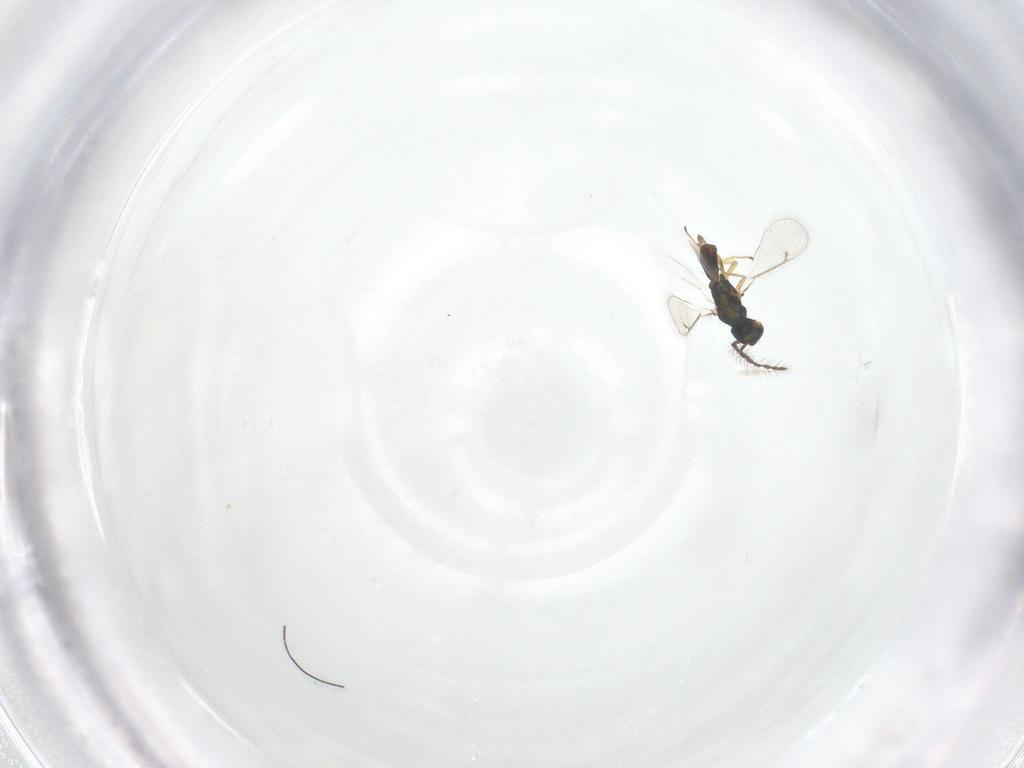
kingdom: Animalia
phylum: Arthropoda
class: Insecta
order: Hymenoptera
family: Eulophidae
